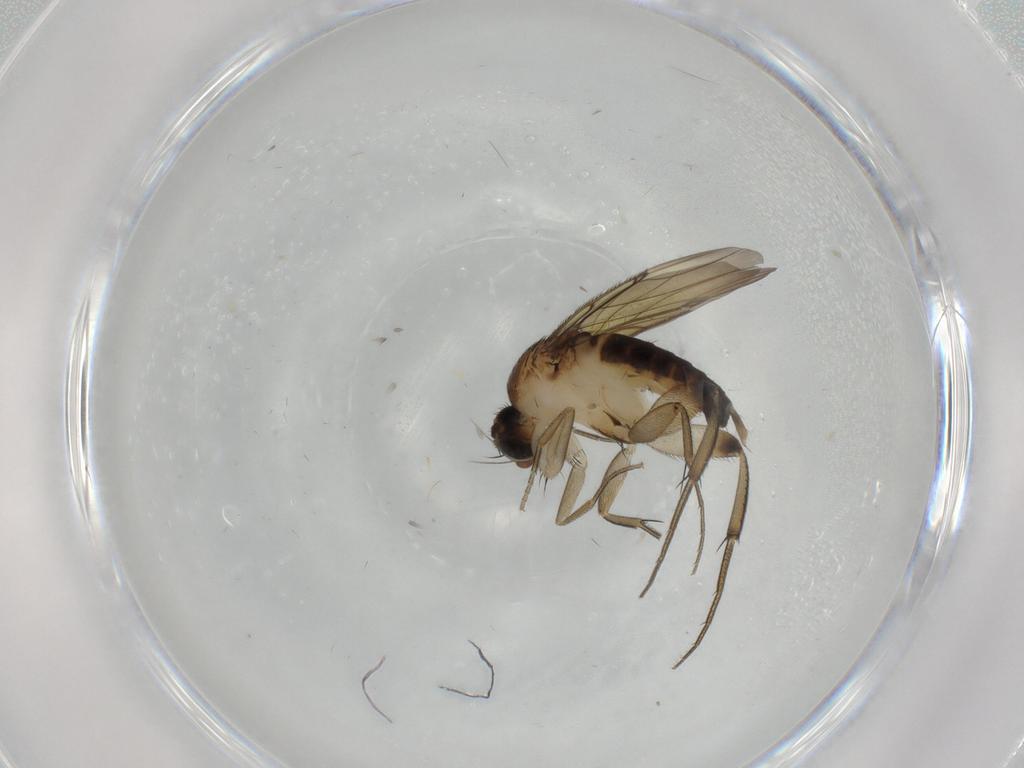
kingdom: Animalia
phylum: Arthropoda
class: Insecta
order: Diptera
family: Phoridae
